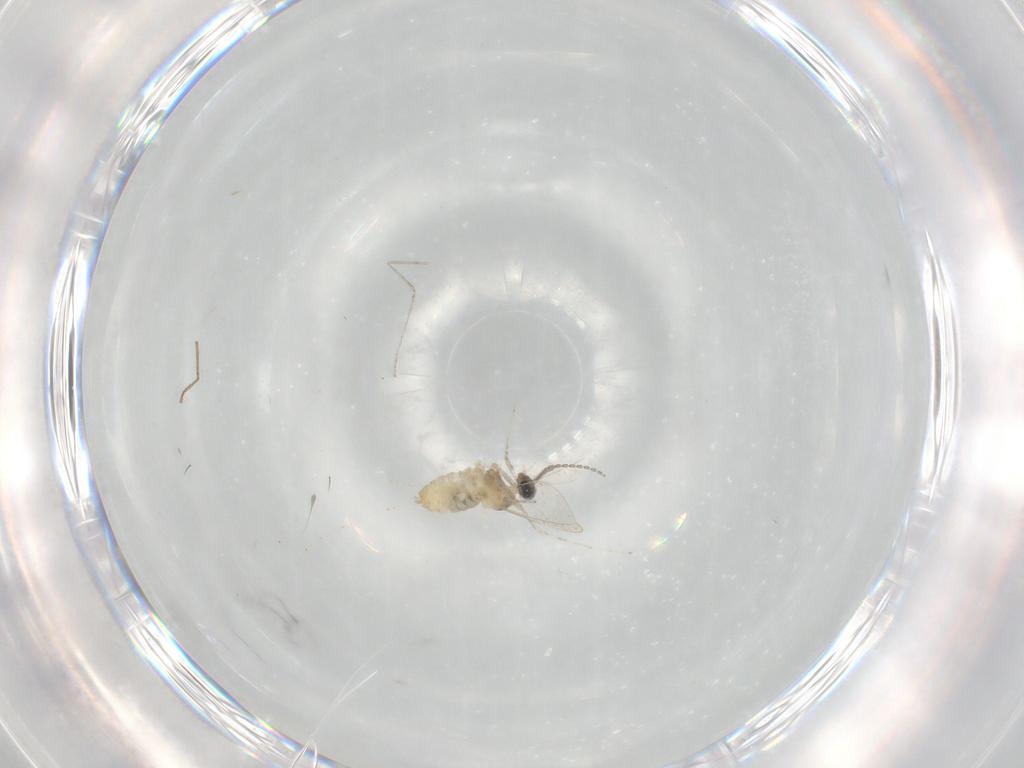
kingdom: Animalia
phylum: Arthropoda
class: Insecta
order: Diptera
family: Cecidomyiidae
